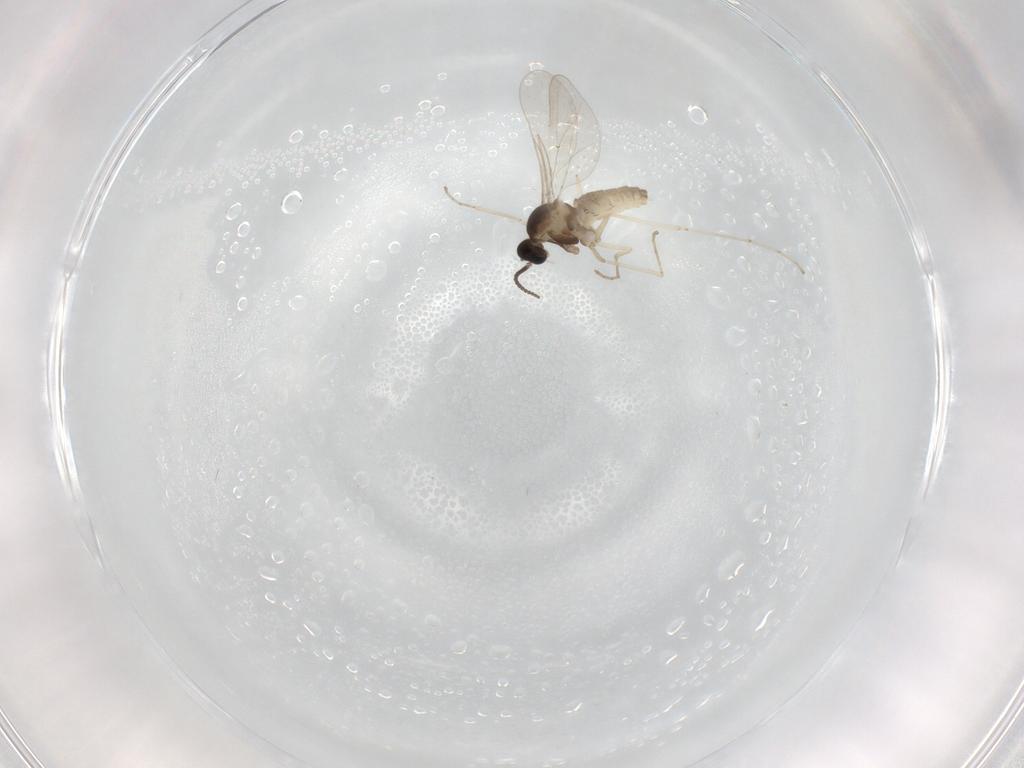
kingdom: Animalia
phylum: Arthropoda
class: Insecta
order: Diptera
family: Cecidomyiidae
